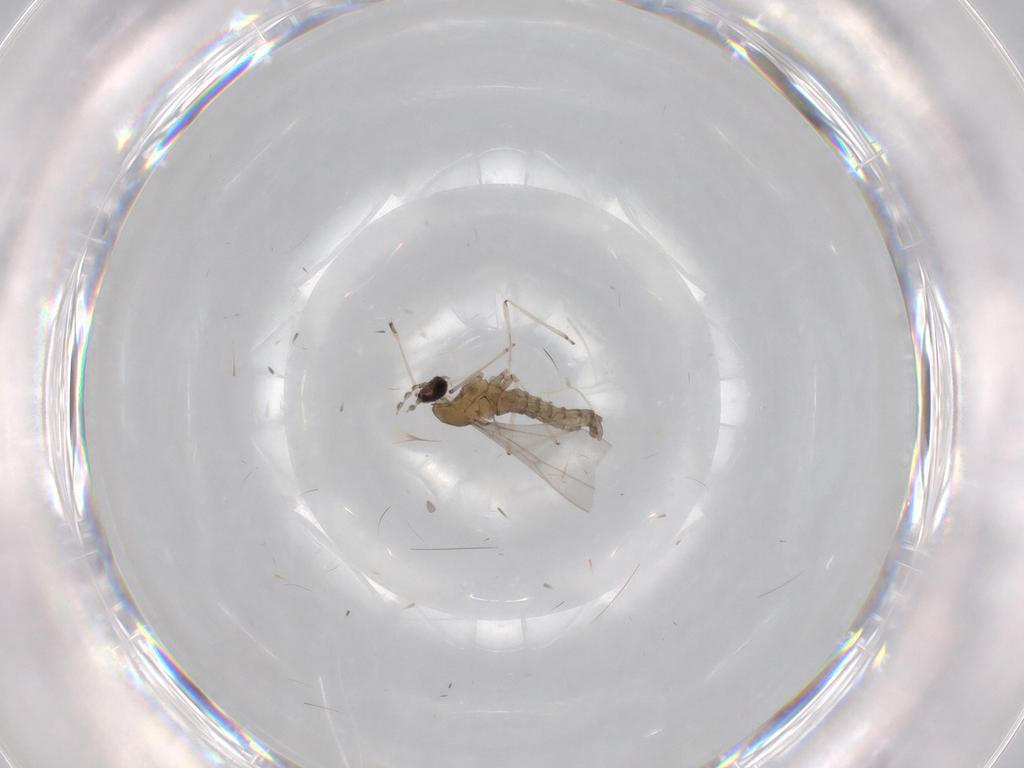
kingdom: Animalia
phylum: Arthropoda
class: Insecta
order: Diptera
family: Cecidomyiidae
